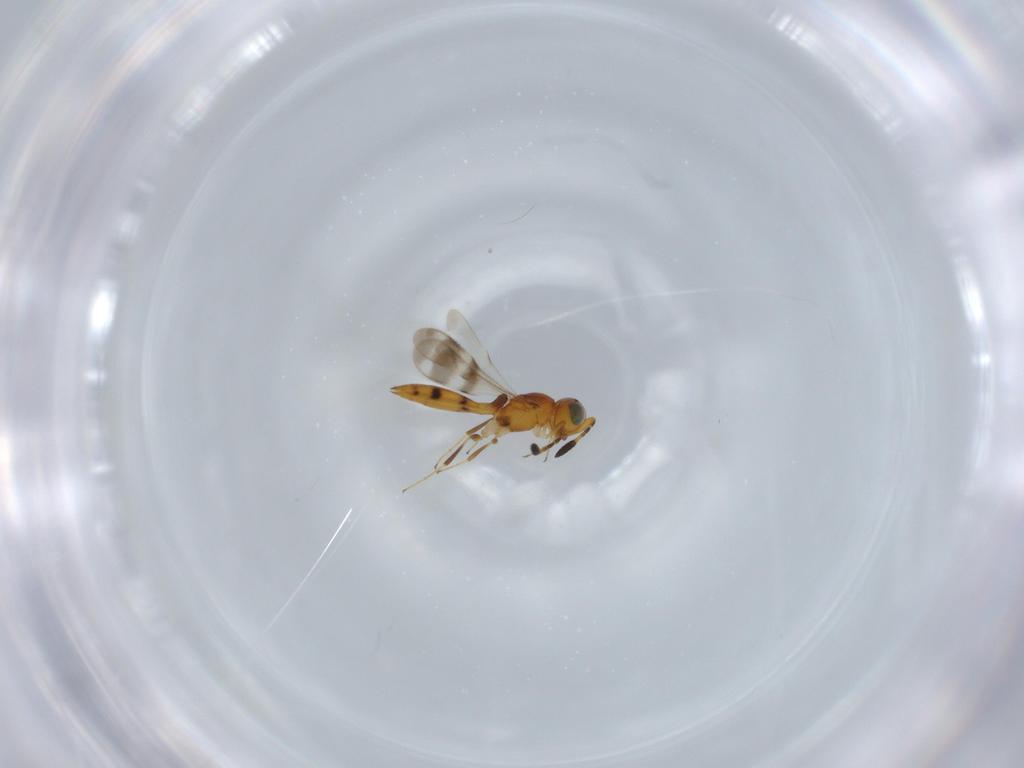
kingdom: Animalia
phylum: Arthropoda
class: Insecta
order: Hymenoptera
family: Scelionidae
